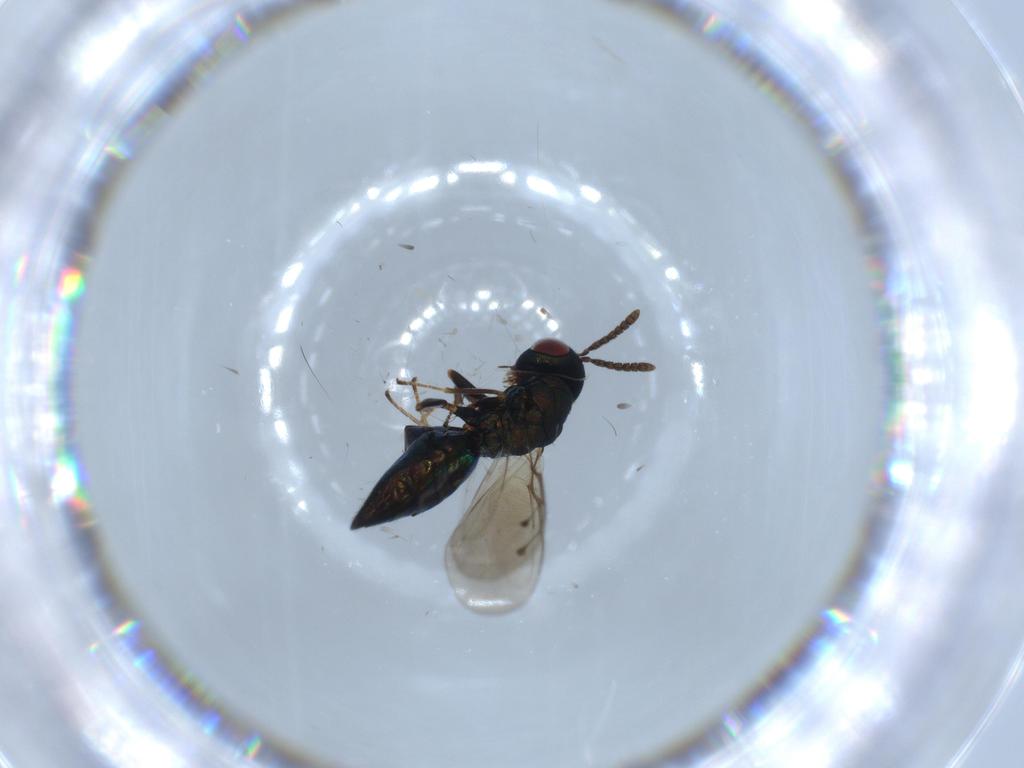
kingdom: Animalia
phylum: Arthropoda
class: Insecta
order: Hymenoptera
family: Pteromalidae
